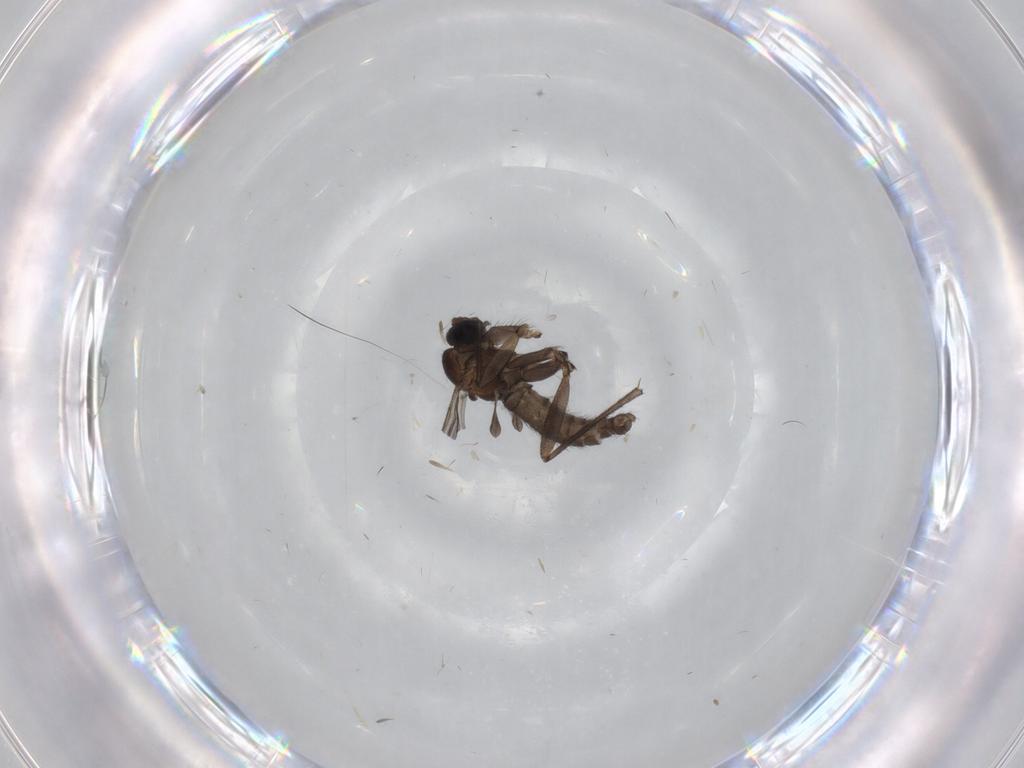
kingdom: Animalia
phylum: Arthropoda
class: Insecta
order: Diptera
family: Sciaridae
